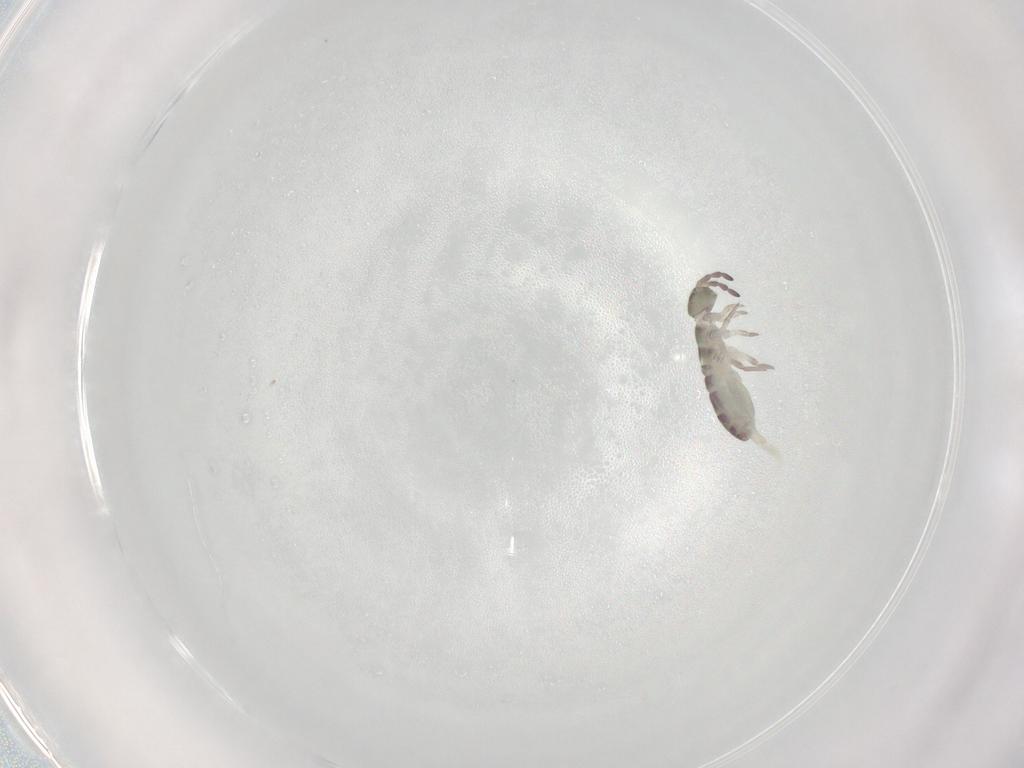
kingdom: Animalia
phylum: Arthropoda
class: Collembola
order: Entomobryomorpha
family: Isotomidae
